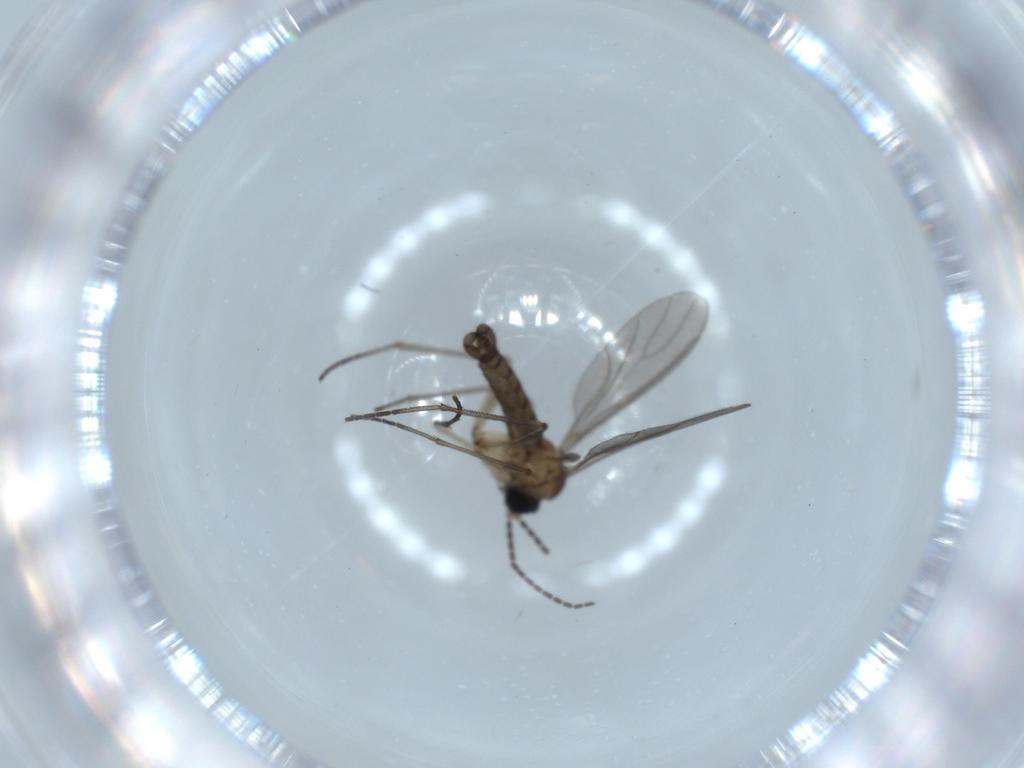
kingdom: Animalia
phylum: Arthropoda
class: Insecta
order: Diptera
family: Sciaridae
